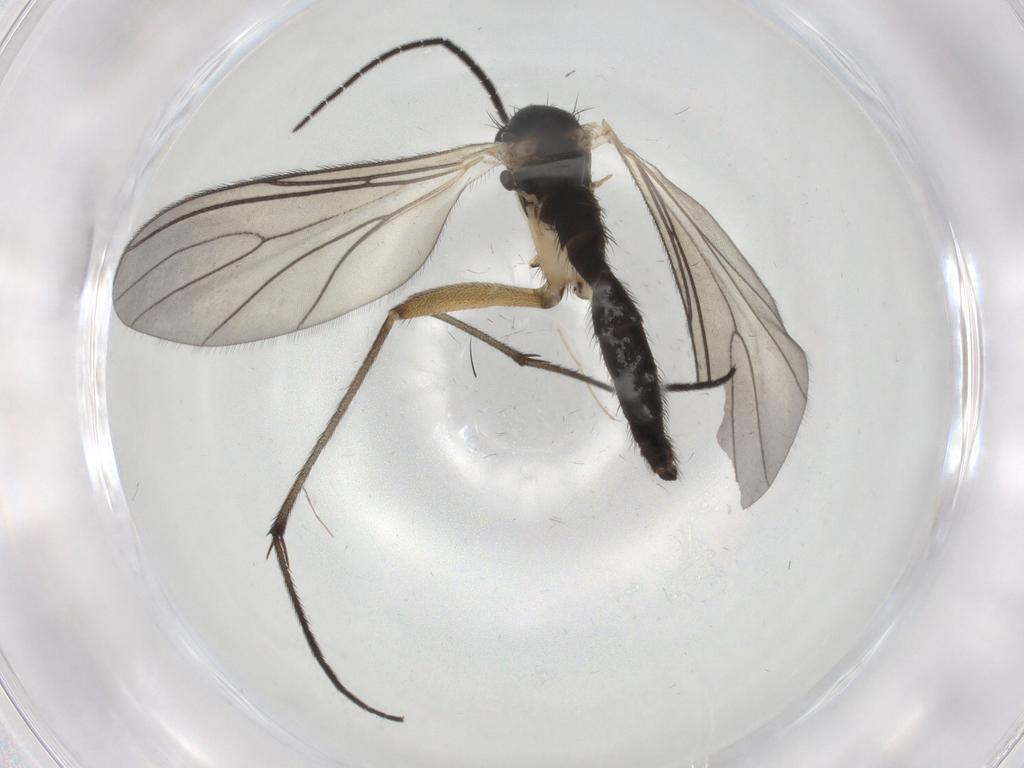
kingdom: Animalia
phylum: Arthropoda
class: Insecta
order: Diptera
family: Sciaridae
